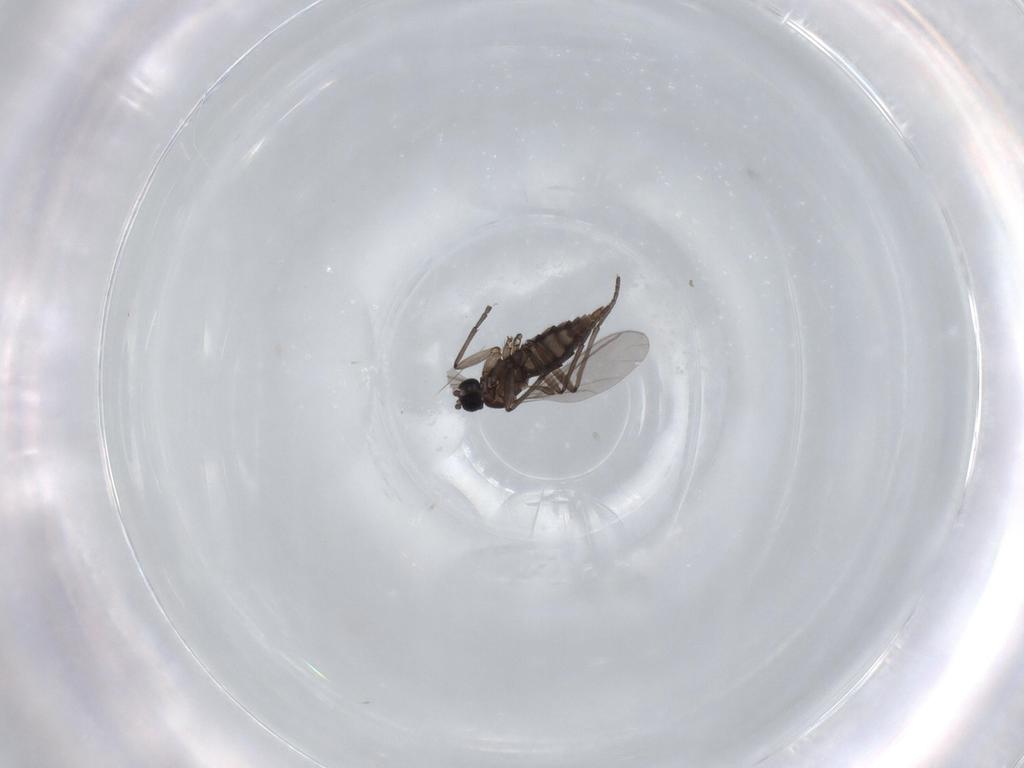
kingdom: Animalia
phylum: Arthropoda
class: Insecta
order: Diptera
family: Sciaridae
